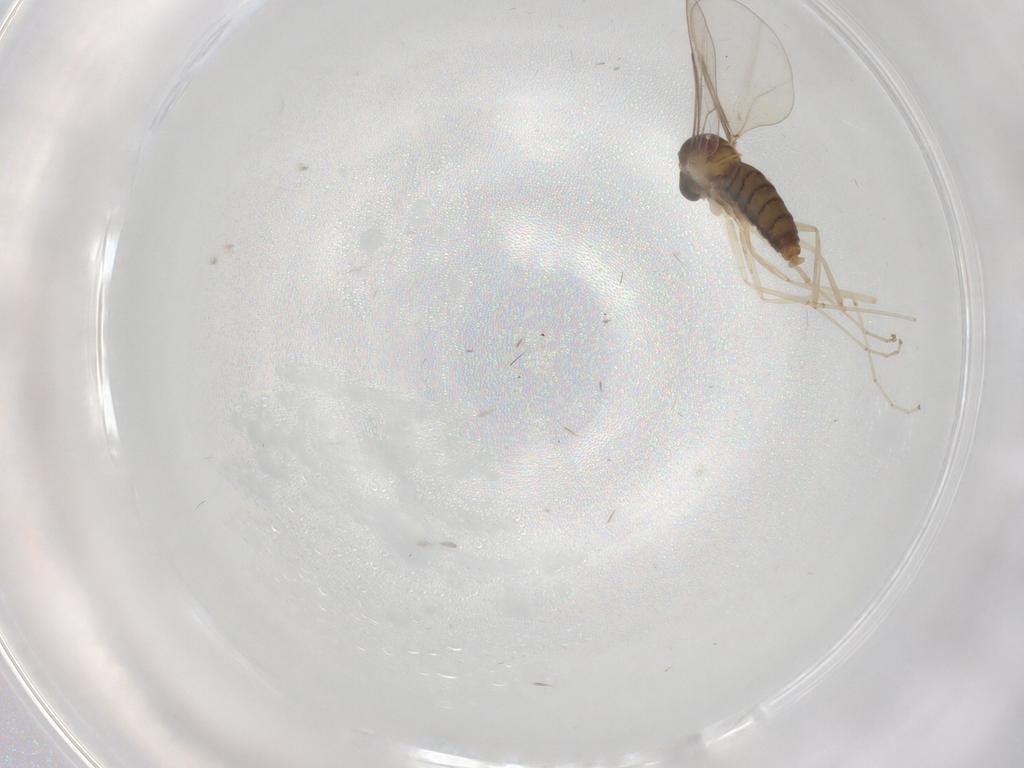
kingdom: Animalia
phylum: Arthropoda
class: Insecta
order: Diptera
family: Cecidomyiidae
